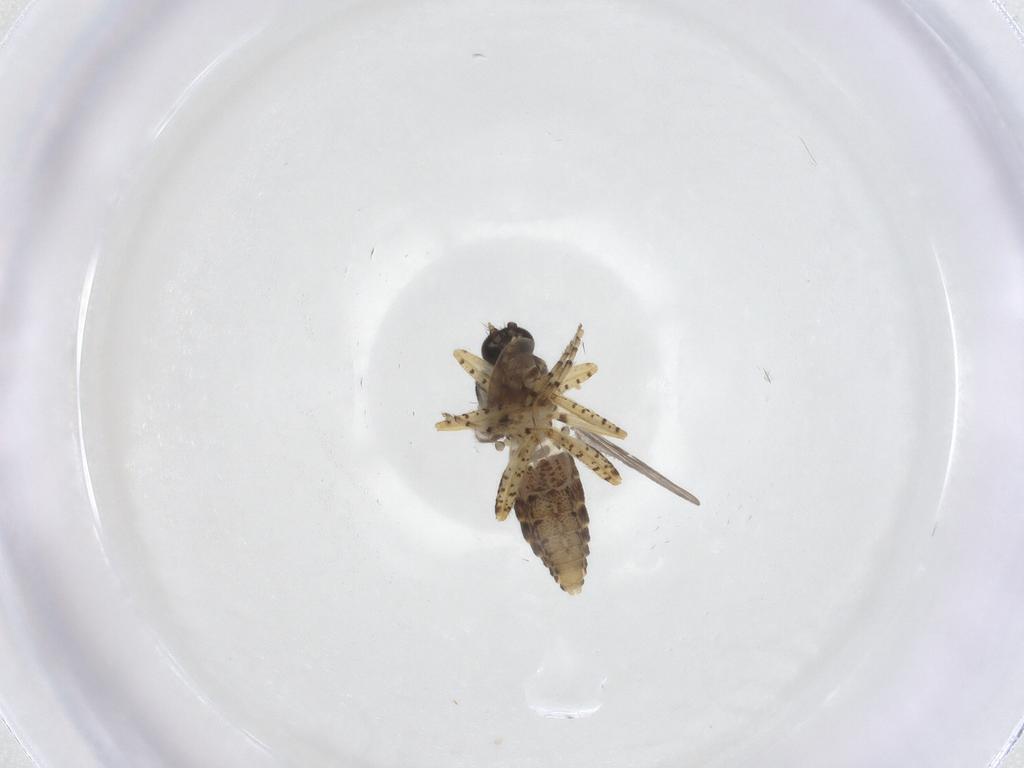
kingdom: Animalia
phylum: Arthropoda
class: Insecta
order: Diptera
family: Ceratopogonidae
